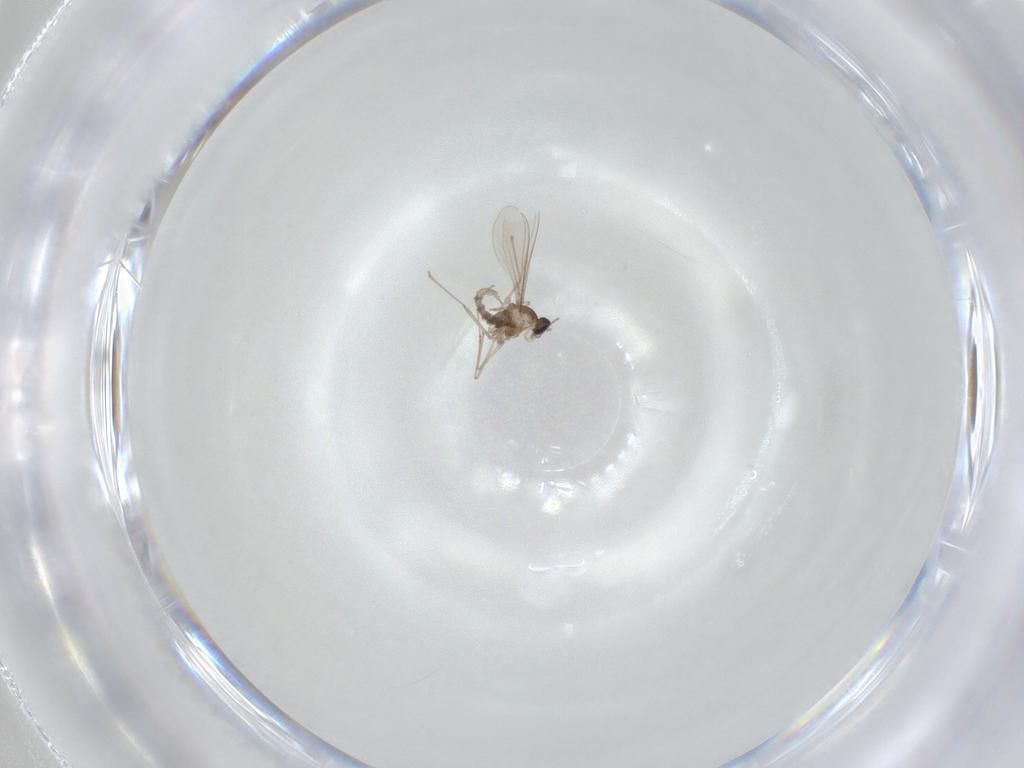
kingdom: Animalia
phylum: Arthropoda
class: Insecta
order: Diptera
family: Cecidomyiidae
